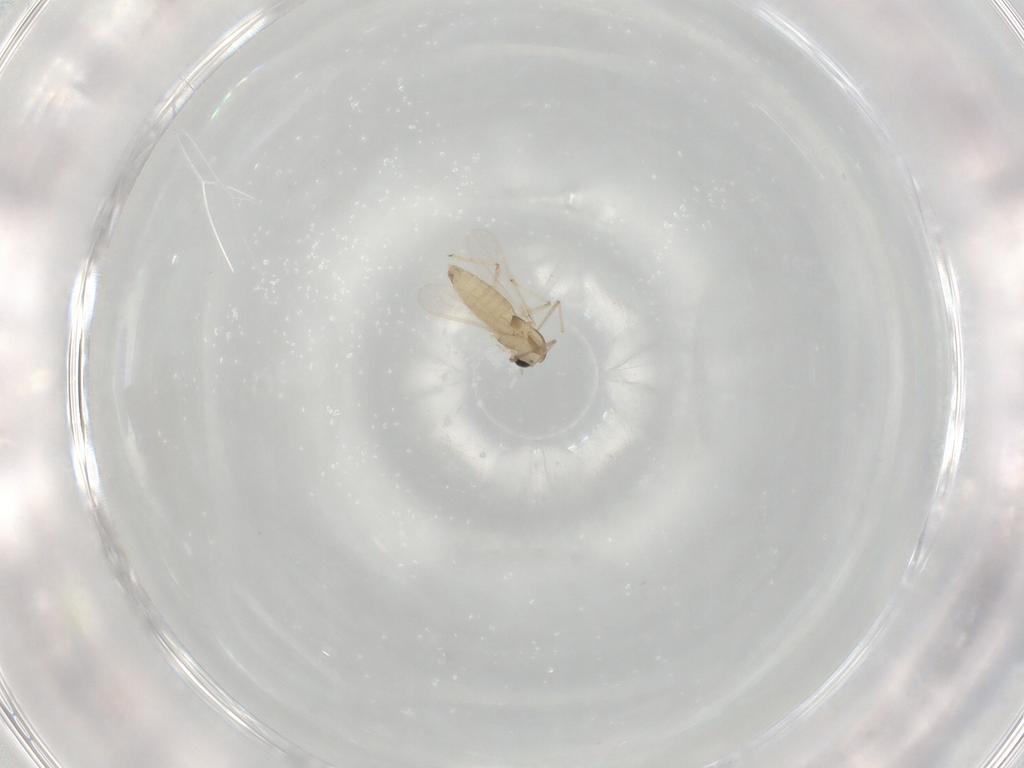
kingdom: Animalia
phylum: Arthropoda
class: Insecta
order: Diptera
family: Chironomidae
